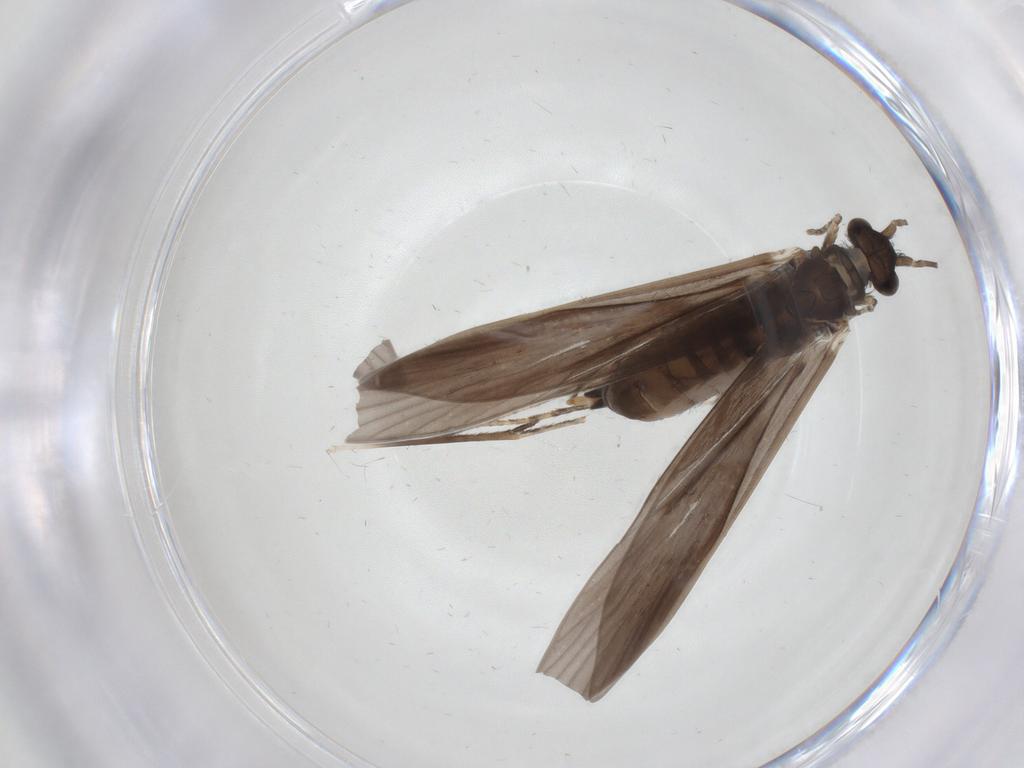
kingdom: Animalia
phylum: Arthropoda
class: Insecta
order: Trichoptera
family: Xiphocentronidae
